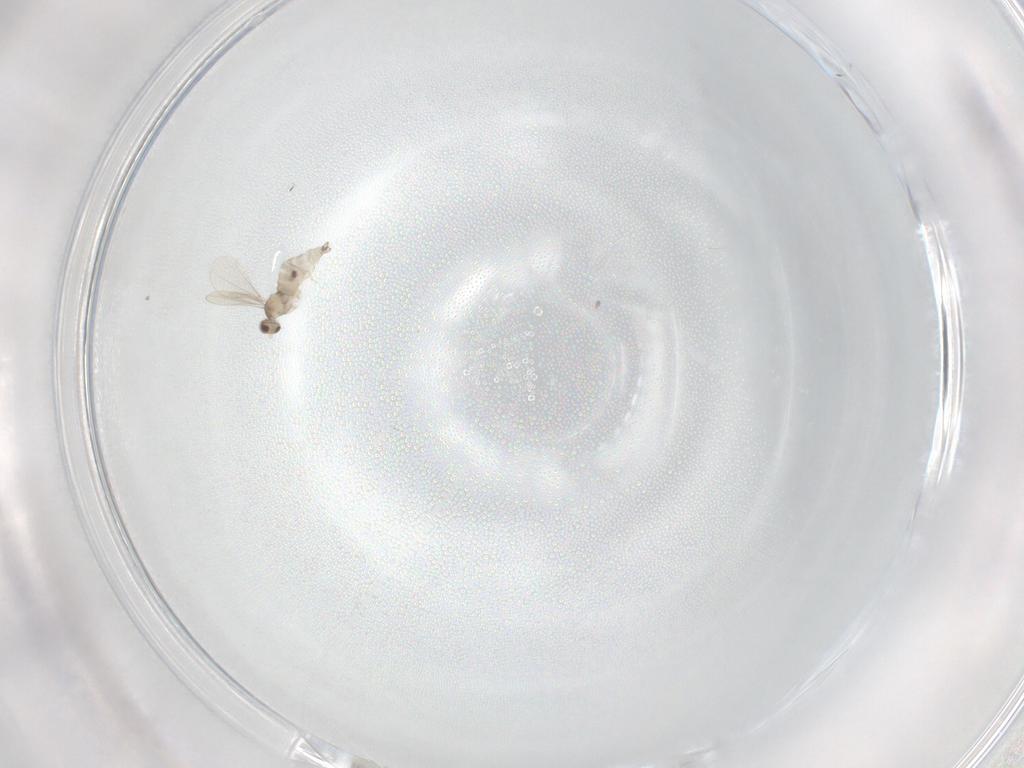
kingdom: Animalia
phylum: Arthropoda
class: Insecta
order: Diptera
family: Cecidomyiidae
